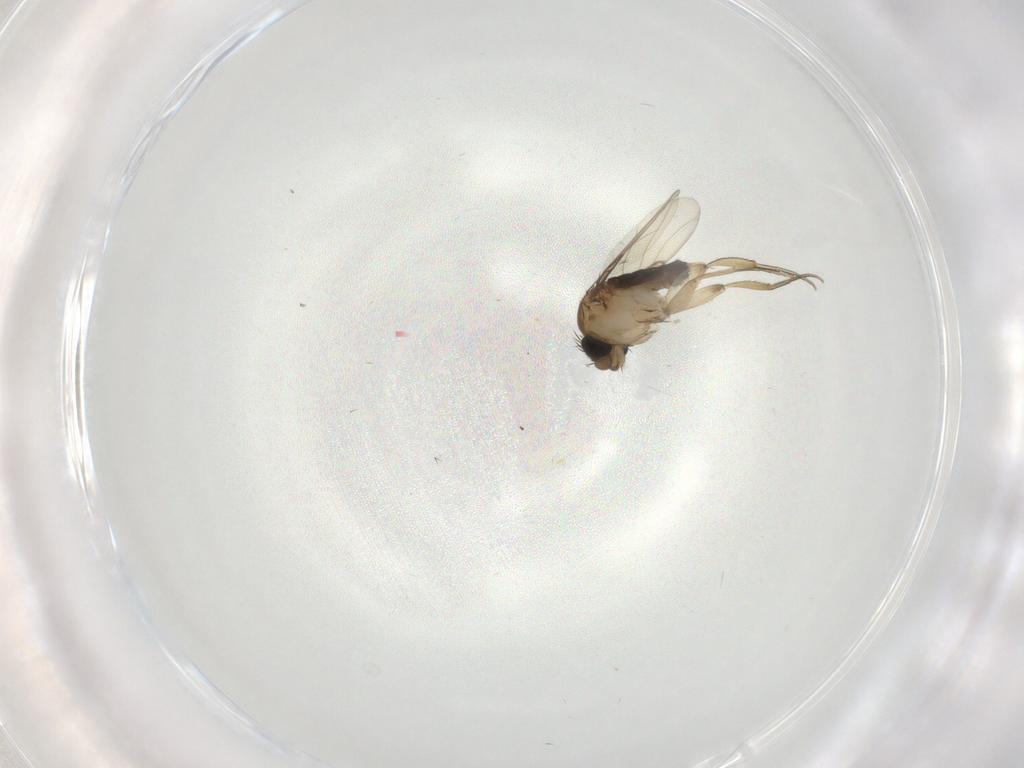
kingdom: Animalia
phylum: Arthropoda
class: Insecta
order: Diptera
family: Phoridae
